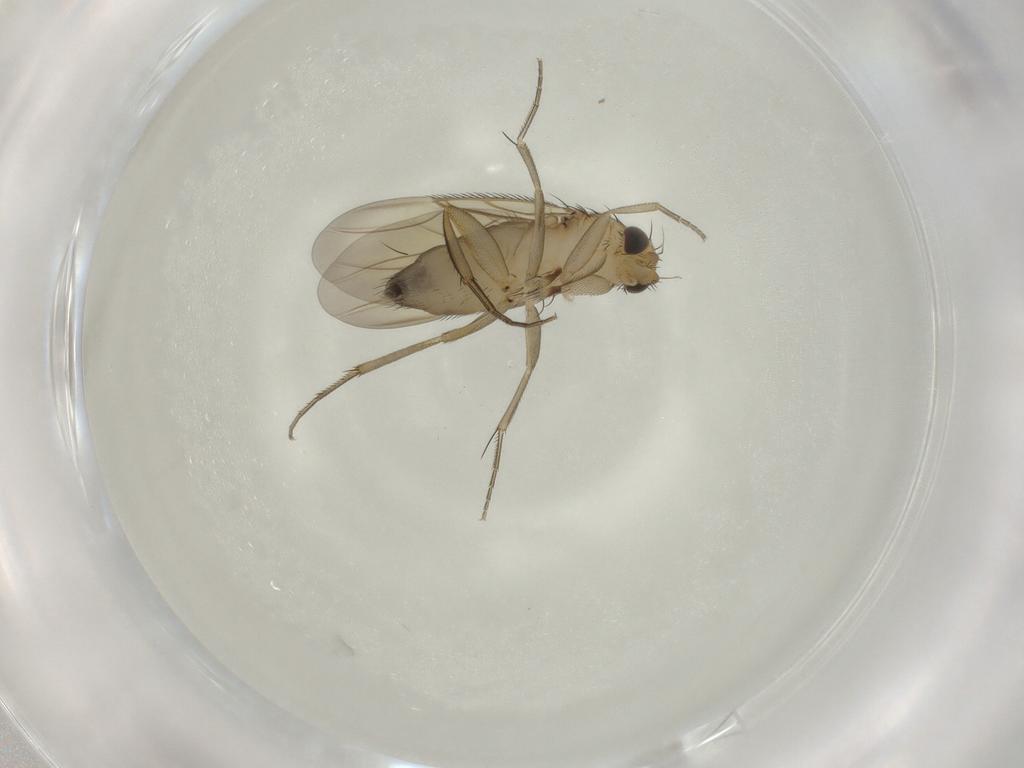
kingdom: Animalia
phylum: Arthropoda
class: Insecta
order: Diptera
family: Phoridae
